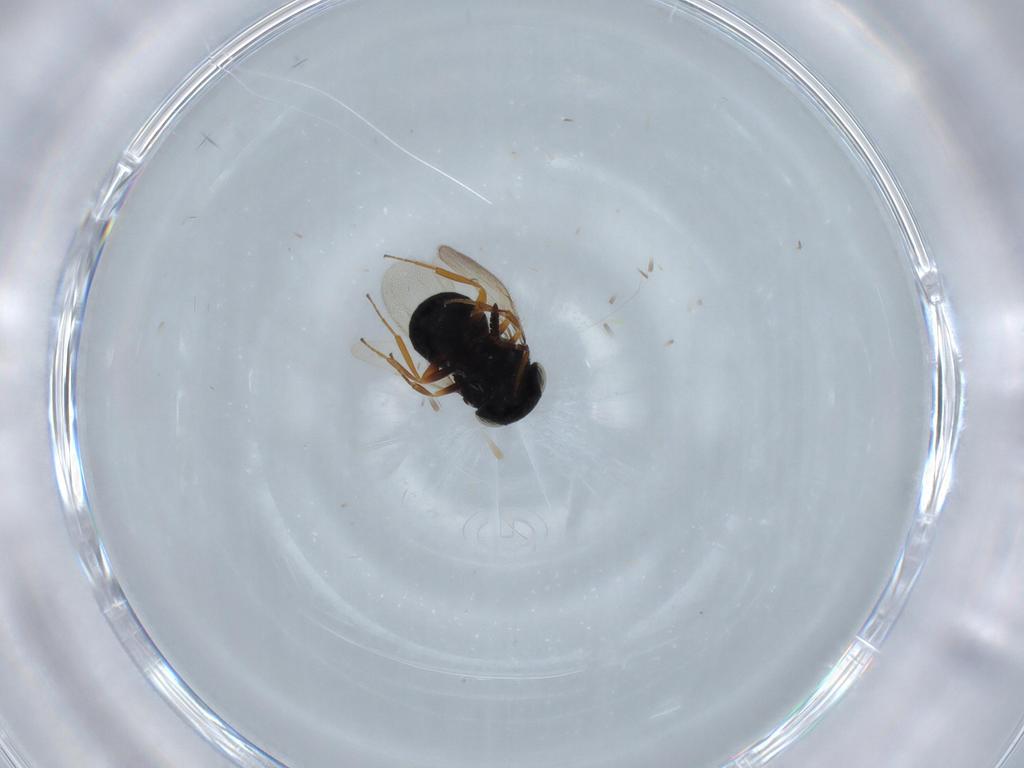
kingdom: Animalia
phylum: Arthropoda
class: Insecta
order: Hymenoptera
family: Scelionidae
